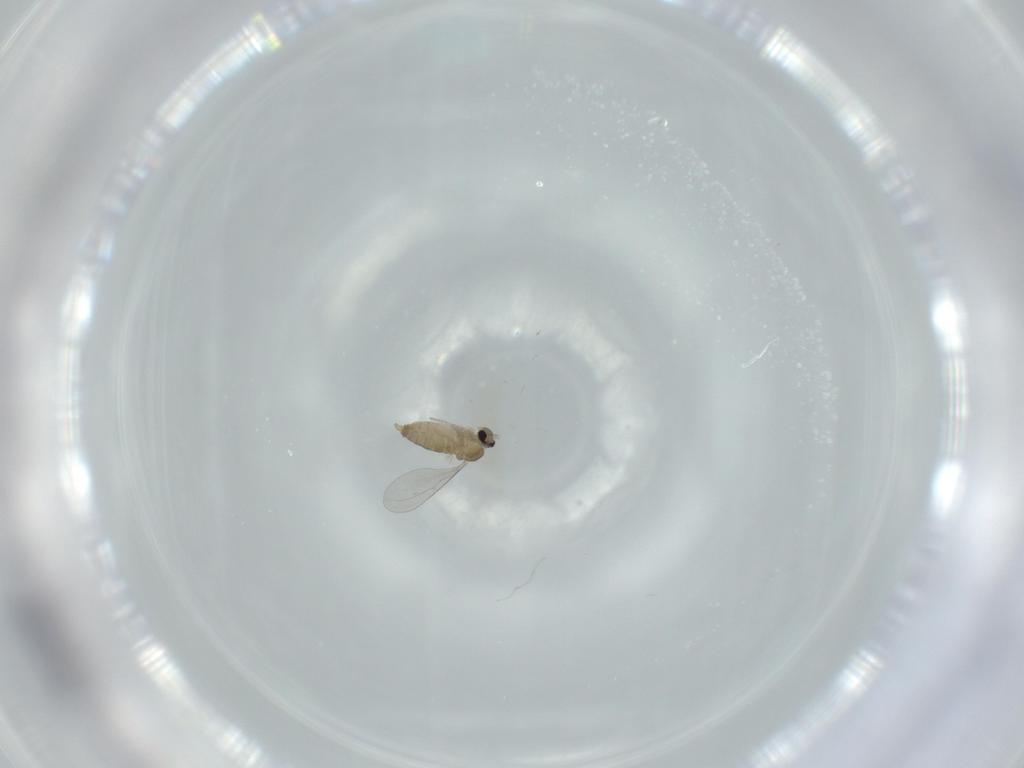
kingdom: Animalia
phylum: Arthropoda
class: Insecta
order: Diptera
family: Cecidomyiidae
